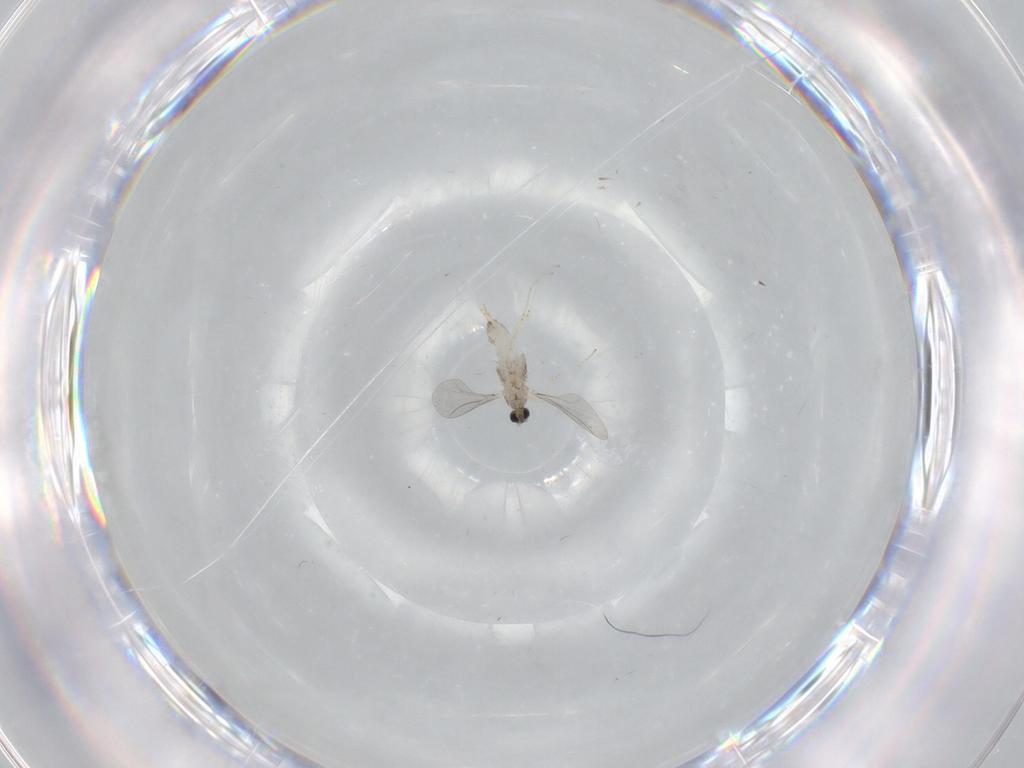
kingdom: Animalia
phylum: Arthropoda
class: Insecta
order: Diptera
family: Cecidomyiidae
